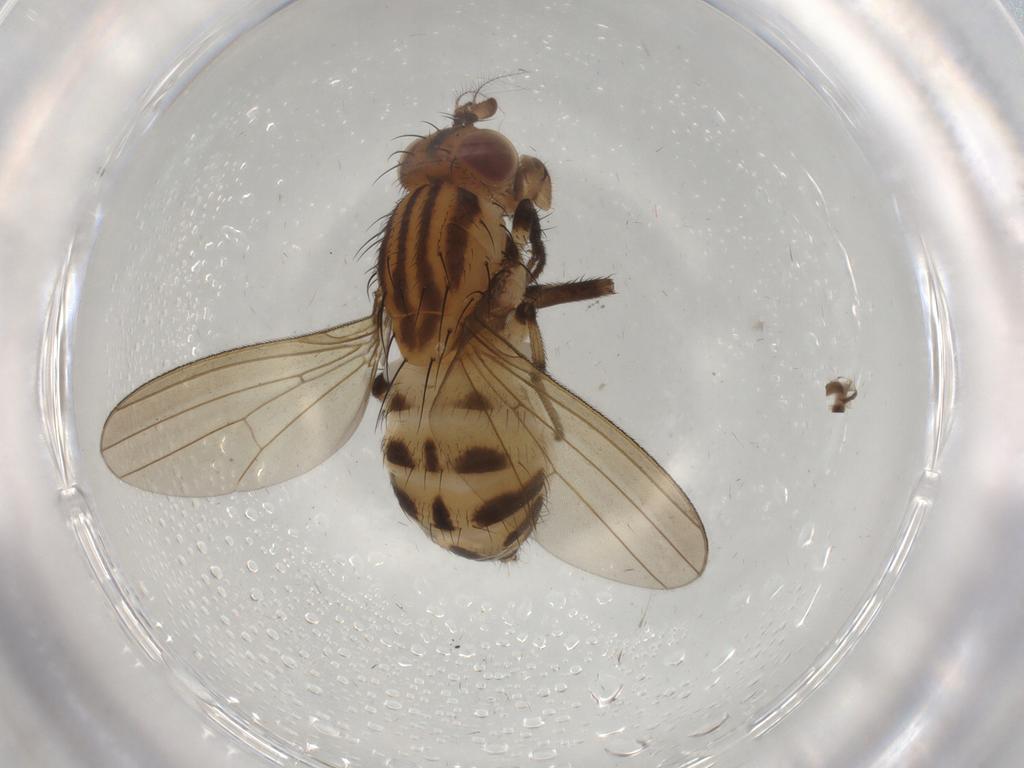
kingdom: Animalia
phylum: Arthropoda
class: Insecta
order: Diptera
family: Lauxaniidae
